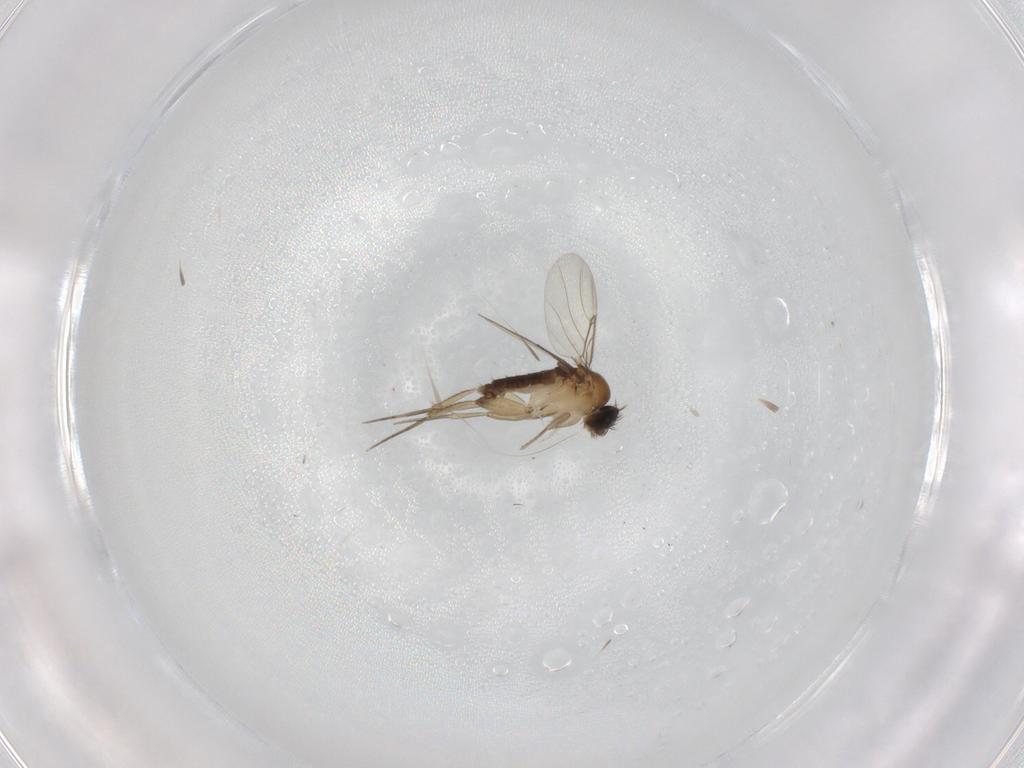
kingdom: Animalia
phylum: Arthropoda
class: Insecta
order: Diptera
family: Phoridae
